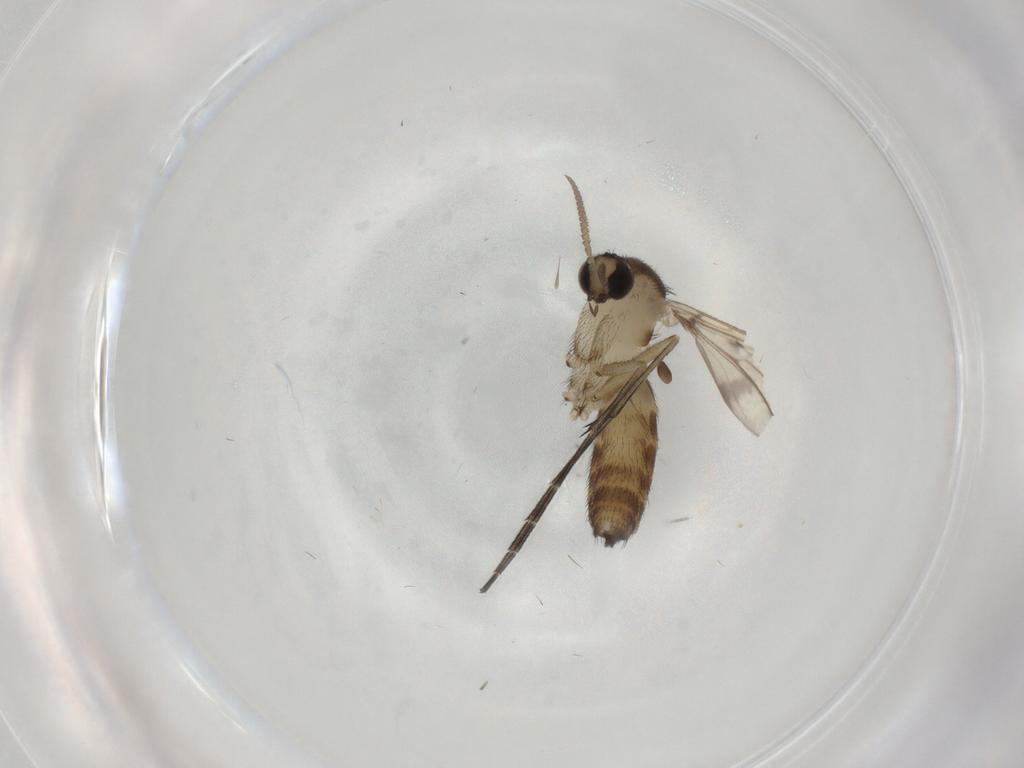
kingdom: Animalia
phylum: Arthropoda
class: Insecta
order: Diptera
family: Keroplatidae
